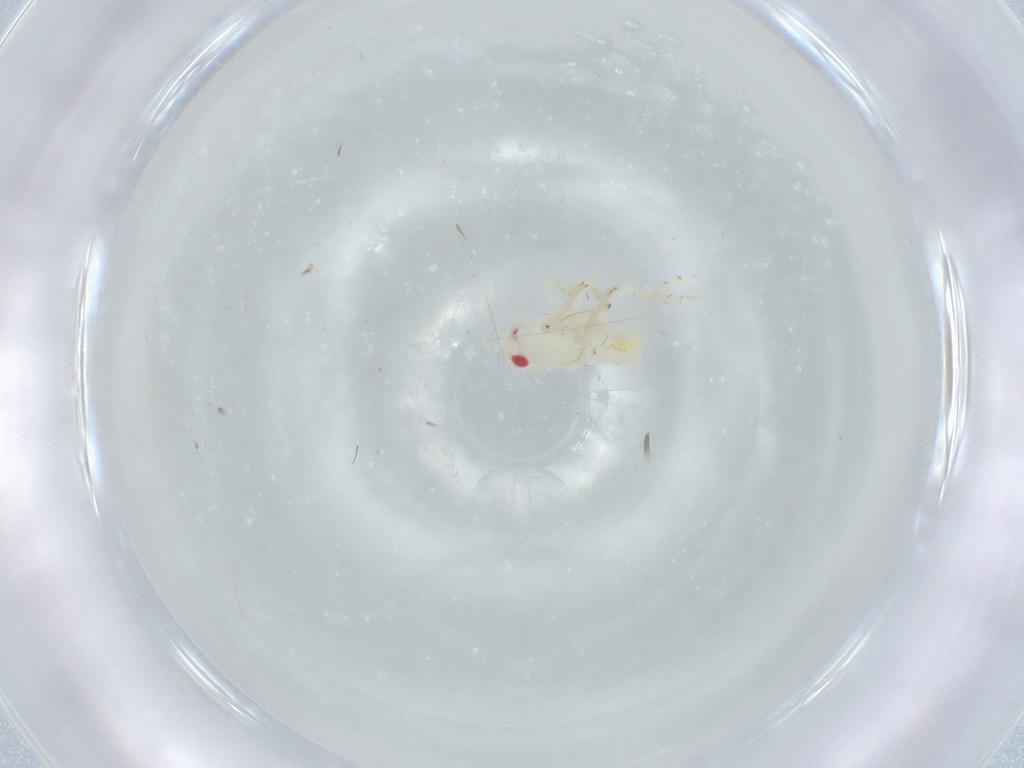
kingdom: Animalia
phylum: Arthropoda
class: Insecta
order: Hemiptera
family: Tropiduchidae
